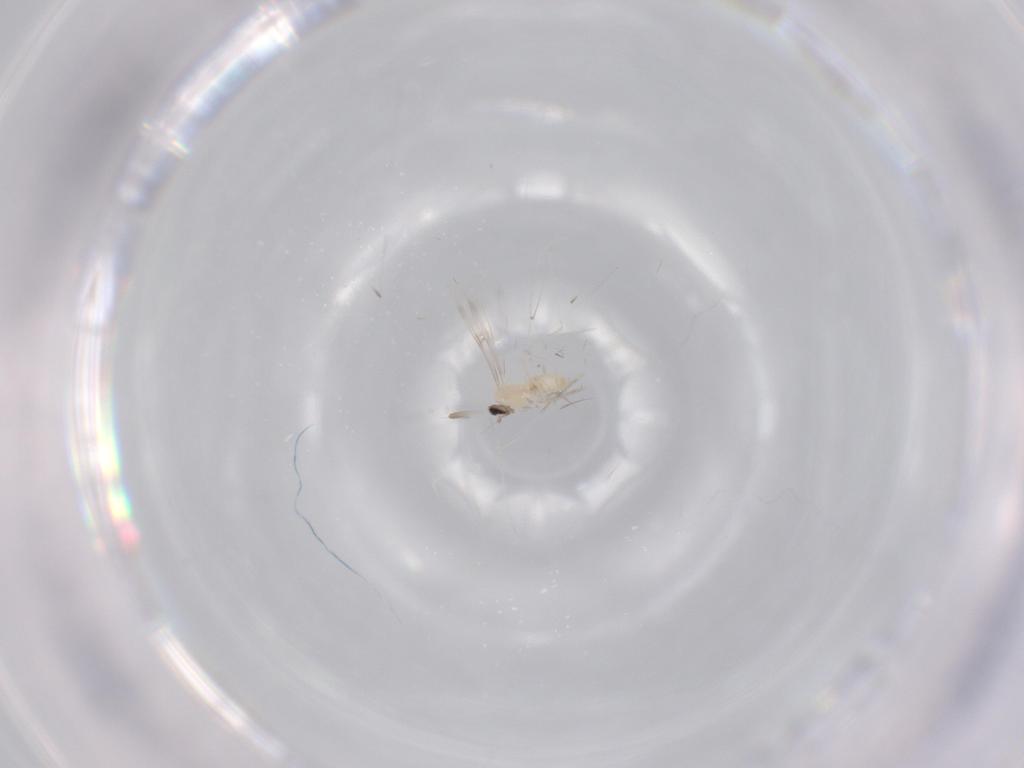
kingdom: Animalia
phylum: Arthropoda
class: Insecta
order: Diptera
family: Cecidomyiidae
